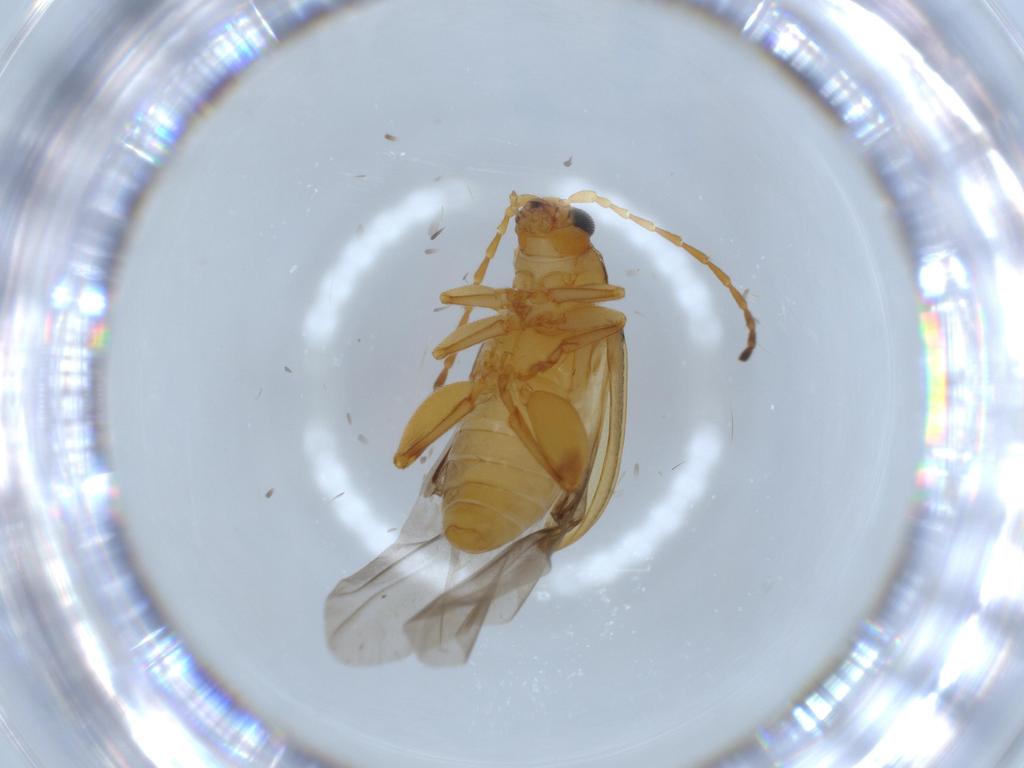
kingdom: Animalia
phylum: Arthropoda
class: Insecta
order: Coleoptera
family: Chrysomelidae
